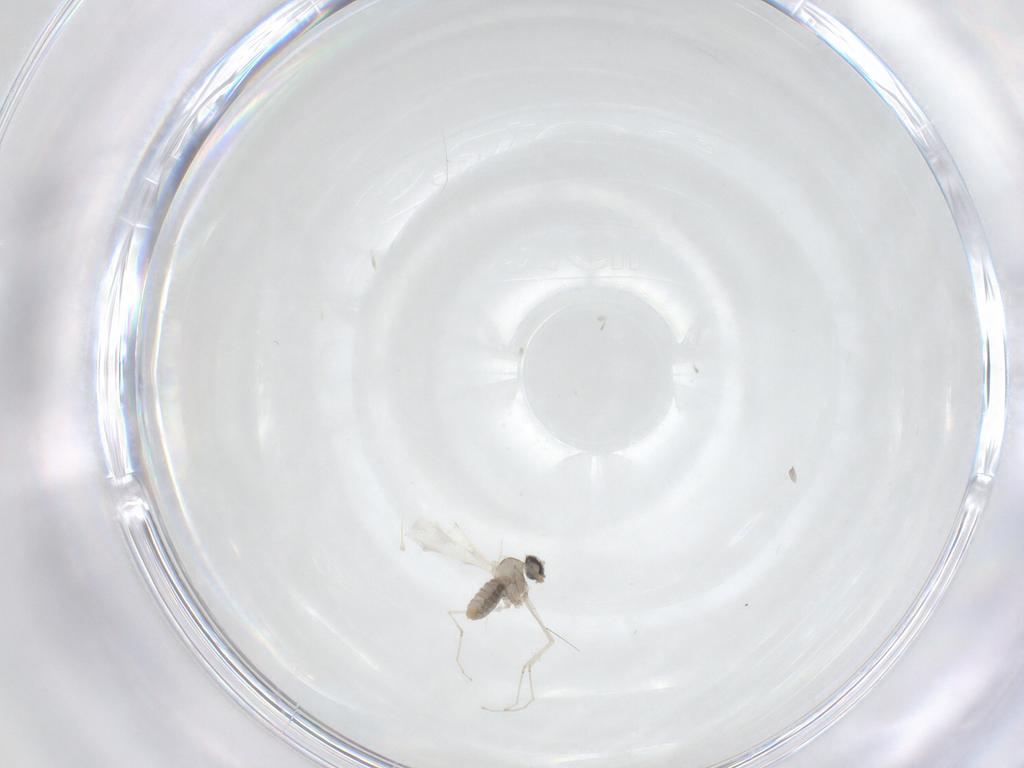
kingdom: Animalia
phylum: Arthropoda
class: Insecta
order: Diptera
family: Cecidomyiidae
